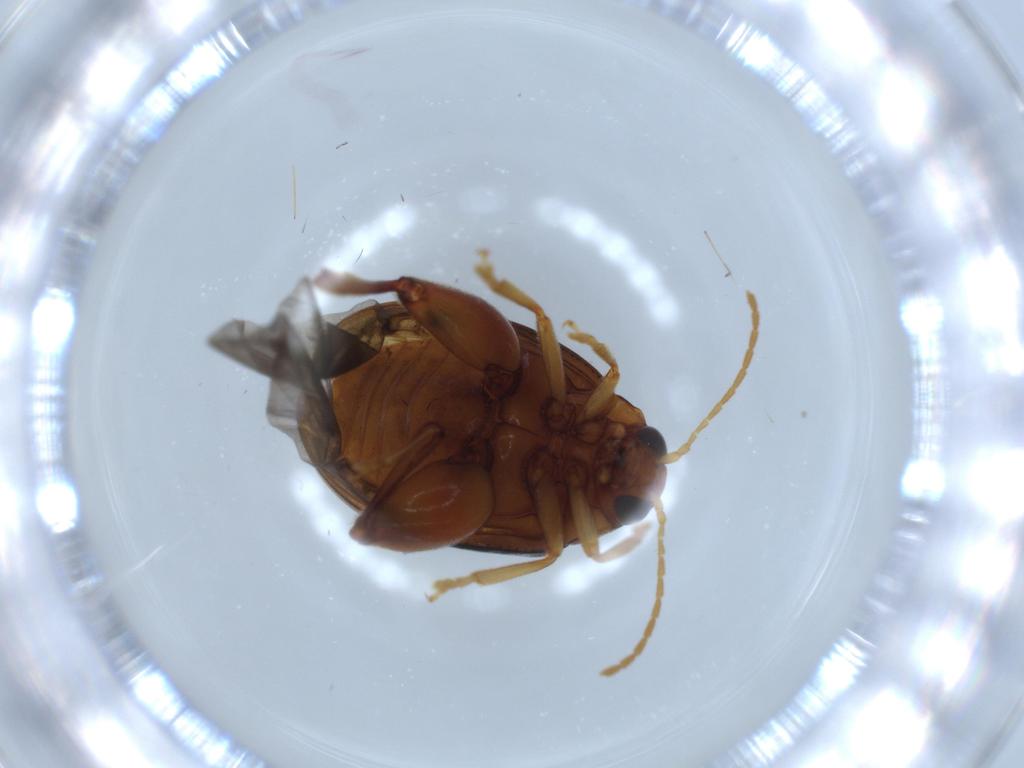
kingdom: Animalia
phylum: Arthropoda
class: Insecta
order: Coleoptera
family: Chrysomelidae
